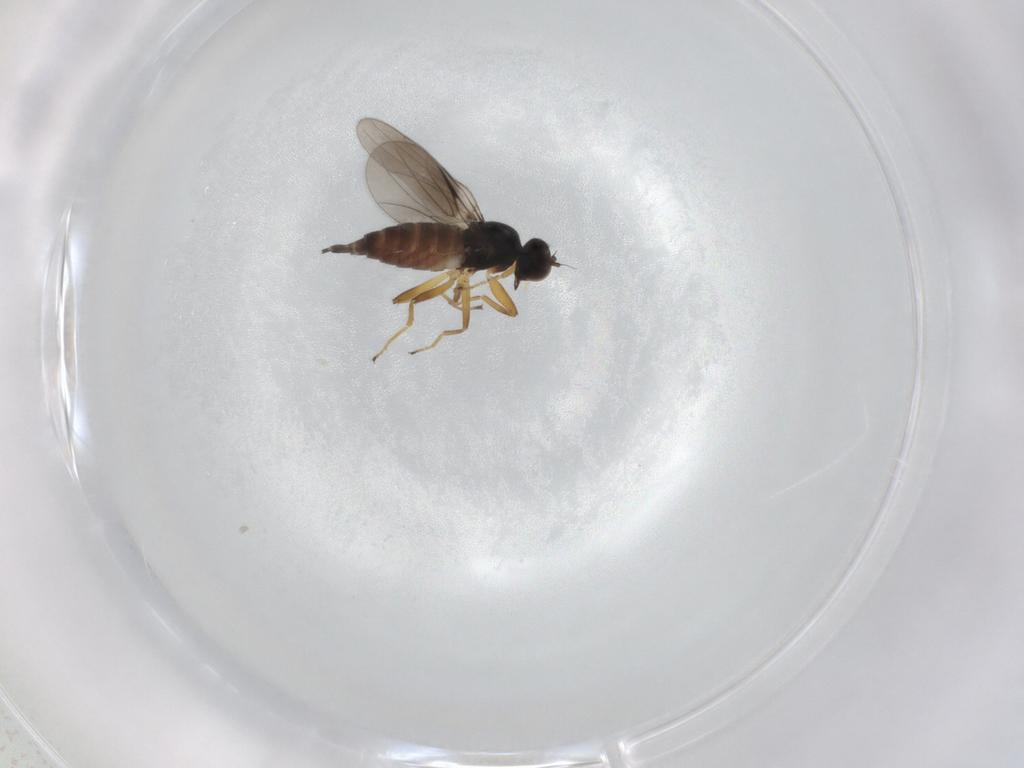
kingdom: Animalia
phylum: Arthropoda
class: Insecta
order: Diptera
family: Hybotidae
